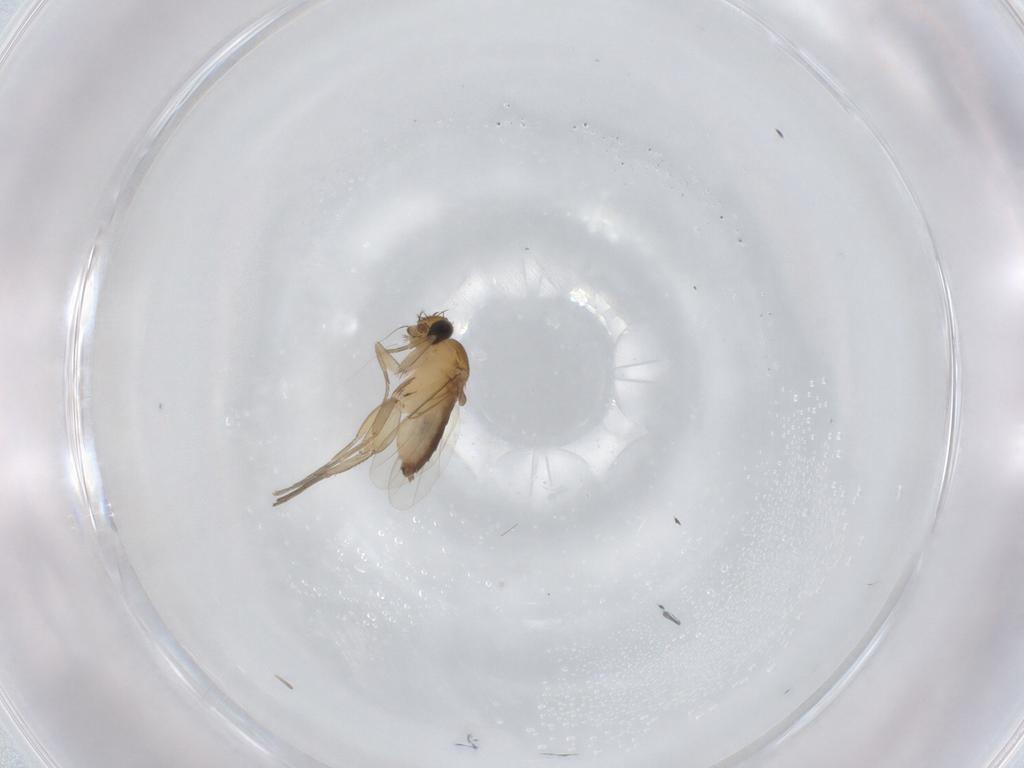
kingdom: Animalia
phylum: Arthropoda
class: Insecta
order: Diptera
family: Phoridae
